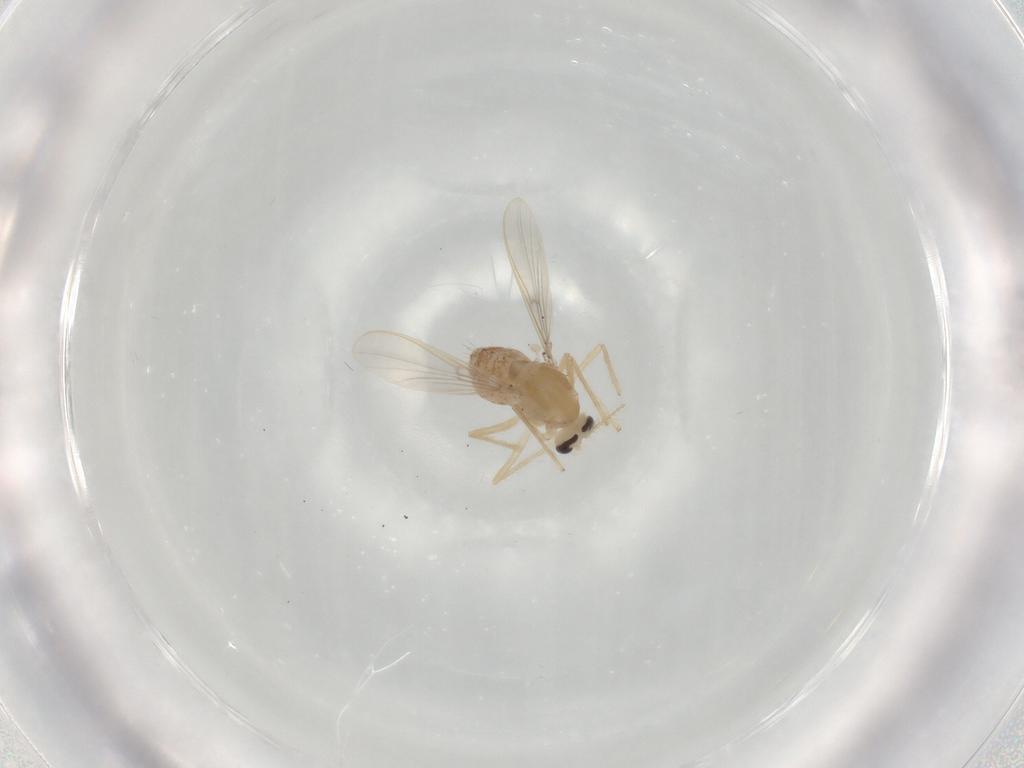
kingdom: Animalia
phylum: Arthropoda
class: Insecta
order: Diptera
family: Chironomidae
